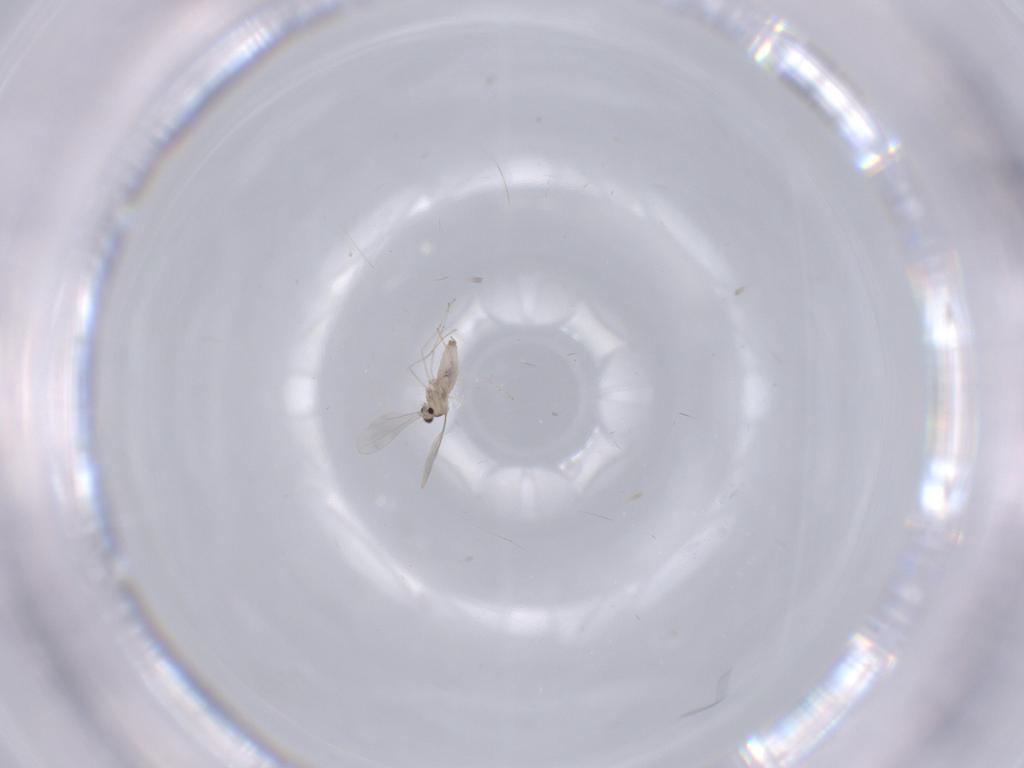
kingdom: Animalia
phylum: Arthropoda
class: Insecta
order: Diptera
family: Cecidomyiidae
